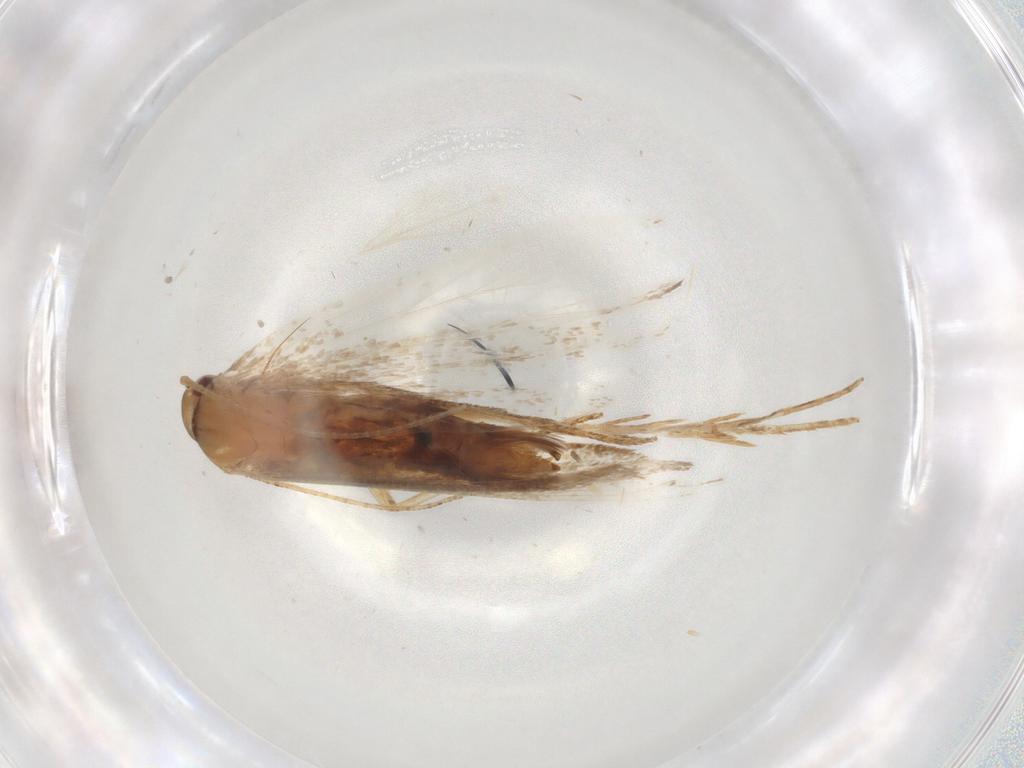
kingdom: Animalia
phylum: Arthropoda
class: Insecta
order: Lepidoptera
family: Gelechiidae
